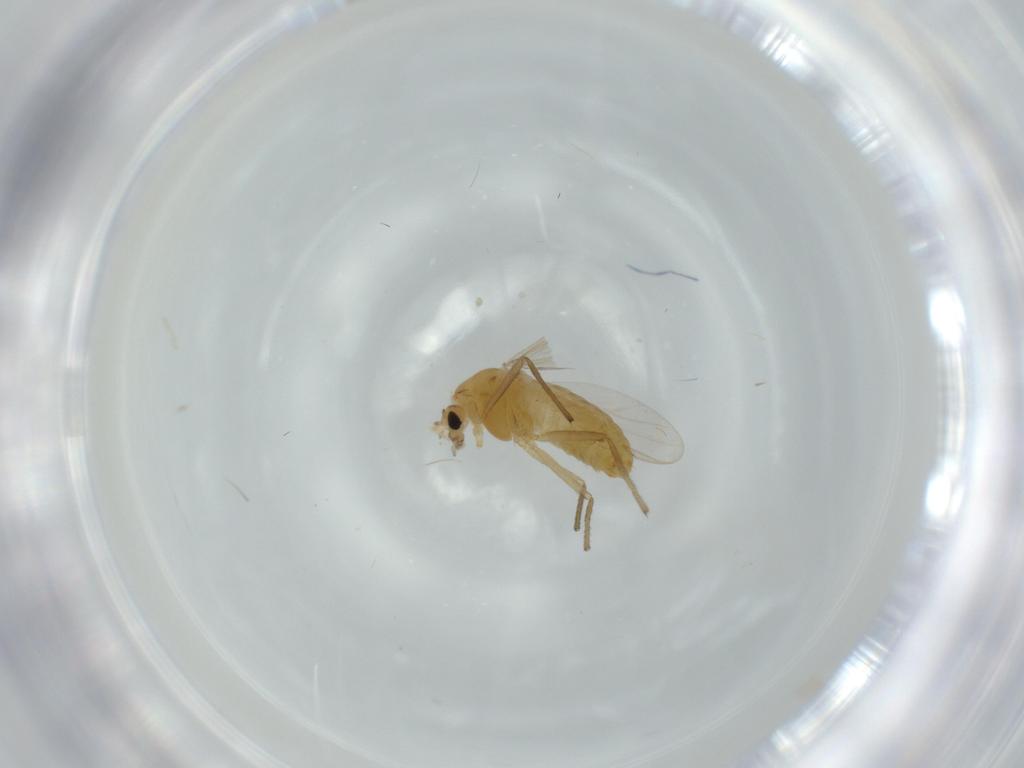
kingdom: Animalia
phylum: Arthropoda
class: Insecta
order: Diptera
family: Chironomidae
